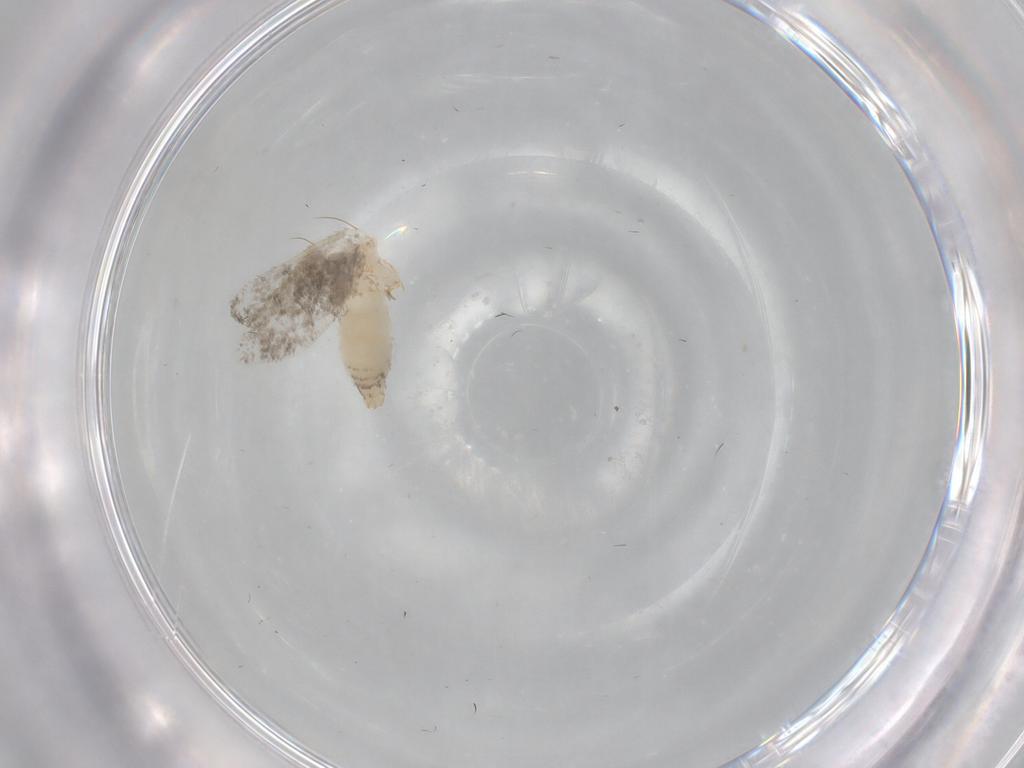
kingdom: Animalia
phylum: Arthropoda
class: Insecta
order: Lepidoptera
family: Psychidae
